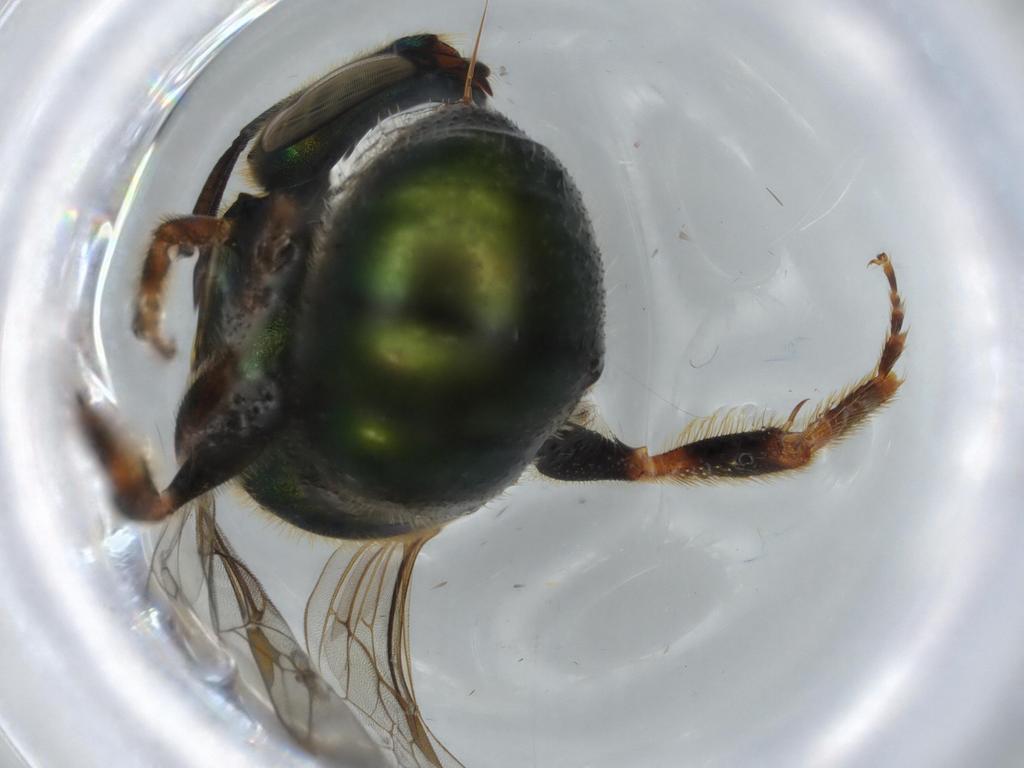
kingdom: Animalia
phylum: Arthropoda
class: Insecta
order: Hymenoptera
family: Halictidae
